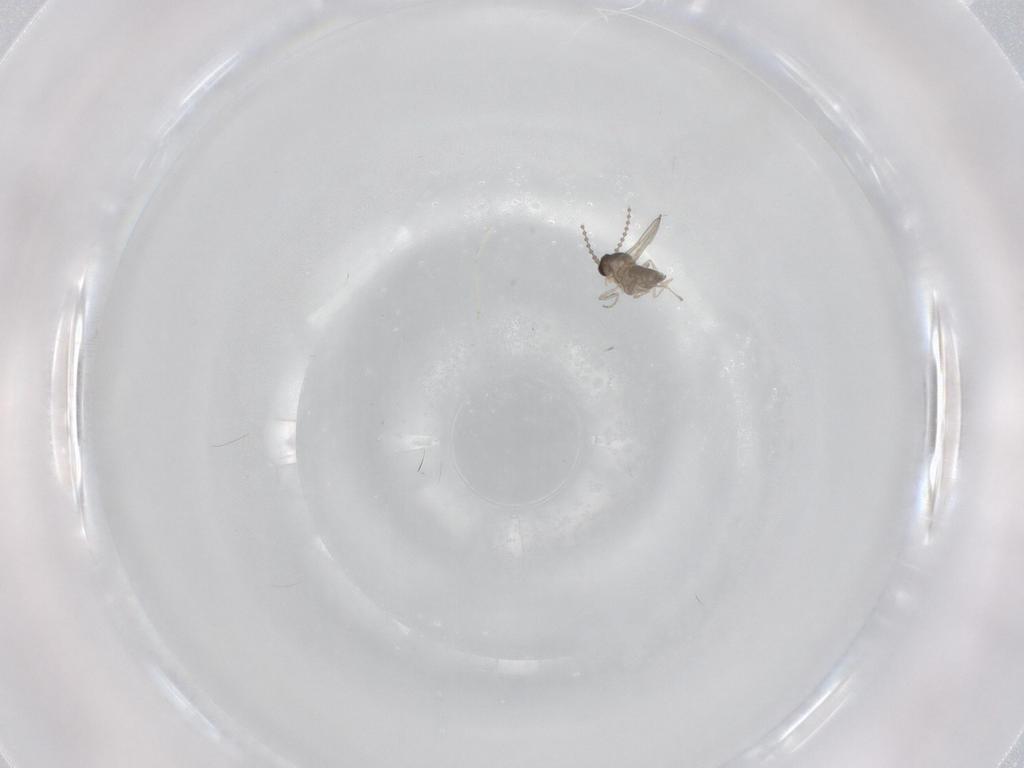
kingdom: Animalia
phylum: Arthropoda
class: Insecta
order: Diptera
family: Cecidomyiidae
